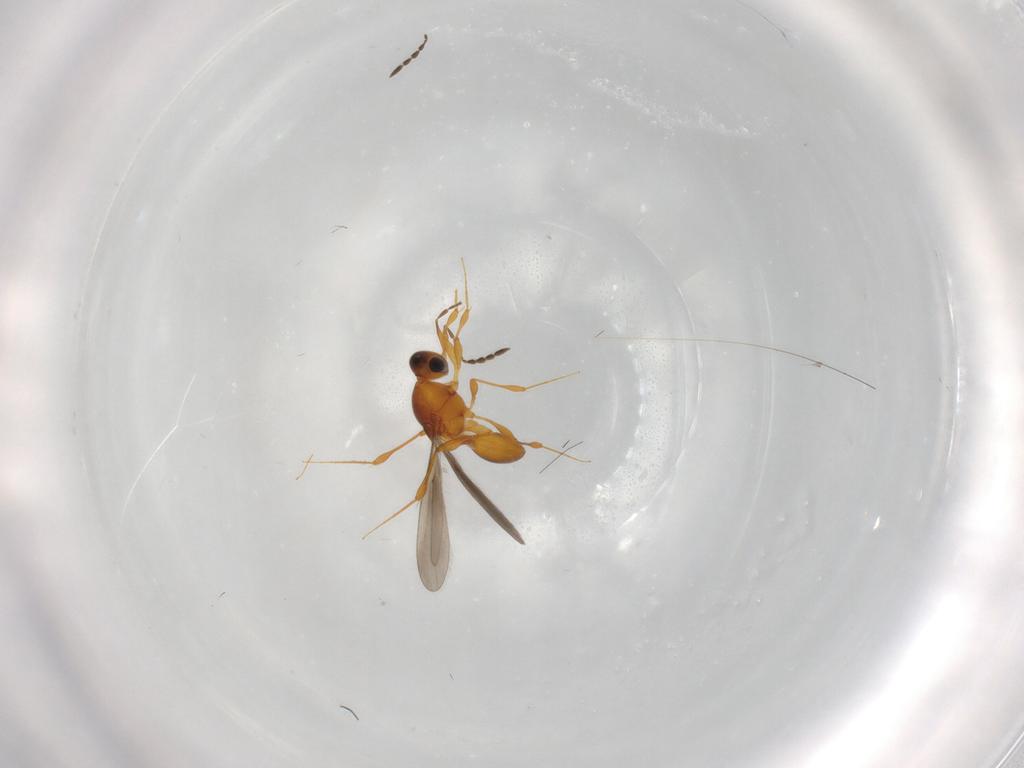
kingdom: Animalia
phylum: Arthropoda
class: Insecta
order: Hymenoptera
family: Platygastridae
